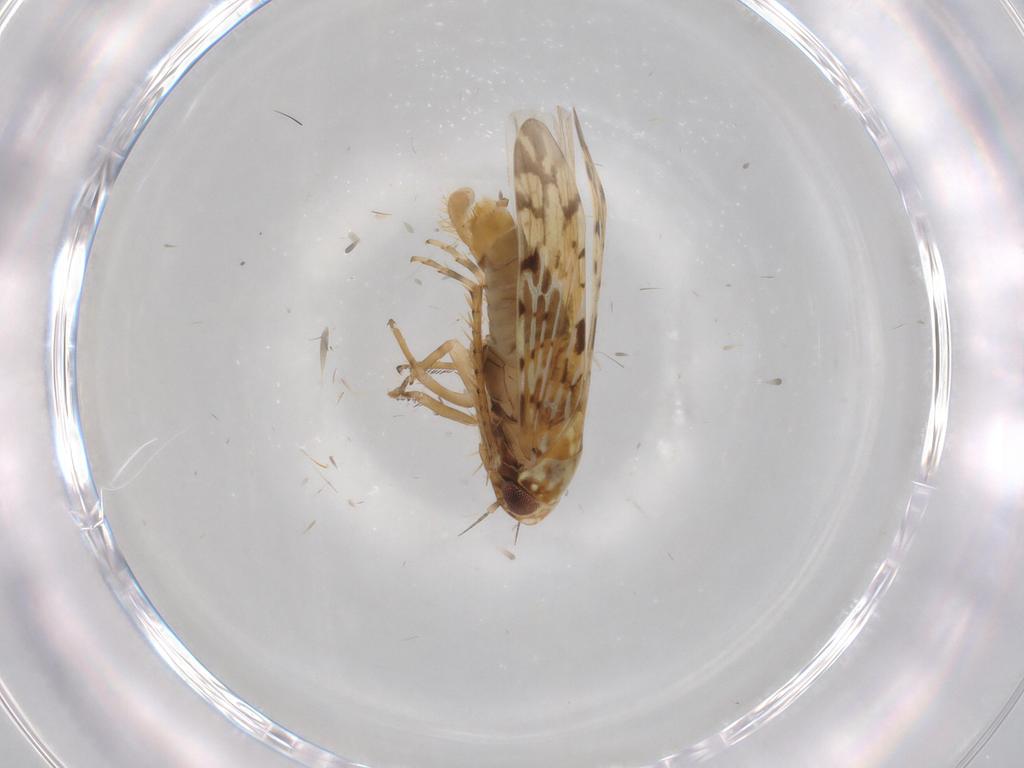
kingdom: Animalia
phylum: Arthropoda
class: Insecta
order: Hemiptera
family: Cicadellidae
